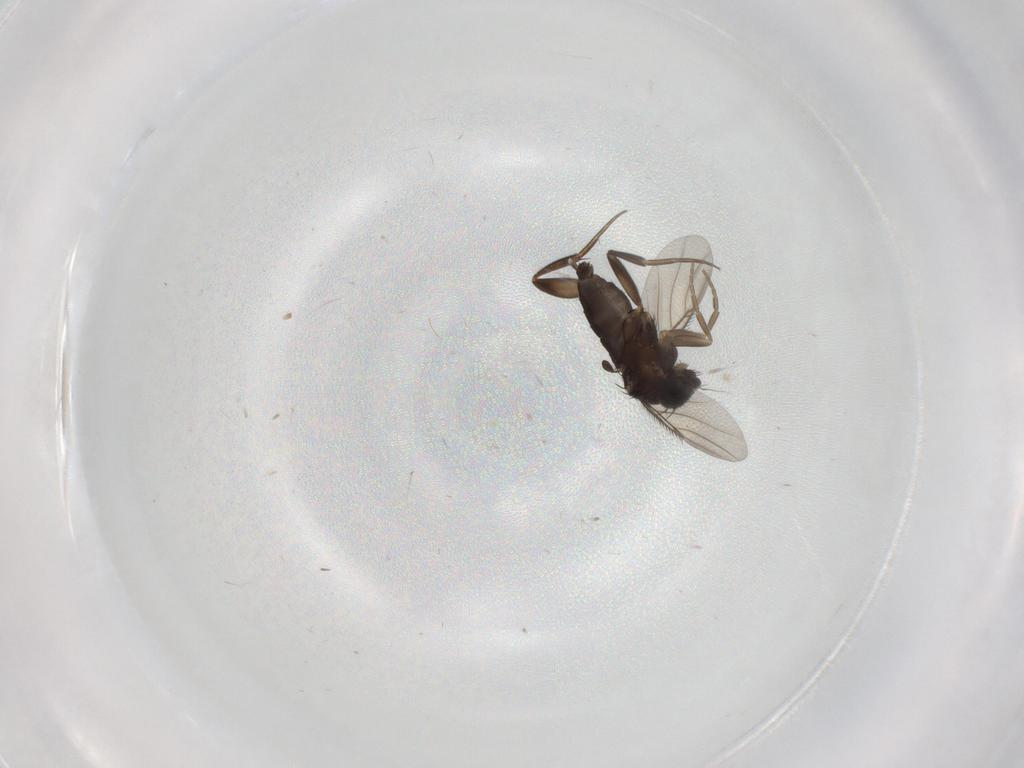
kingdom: Animalia
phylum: Arthropoda
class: Insecta
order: Diptera
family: Phoridae
